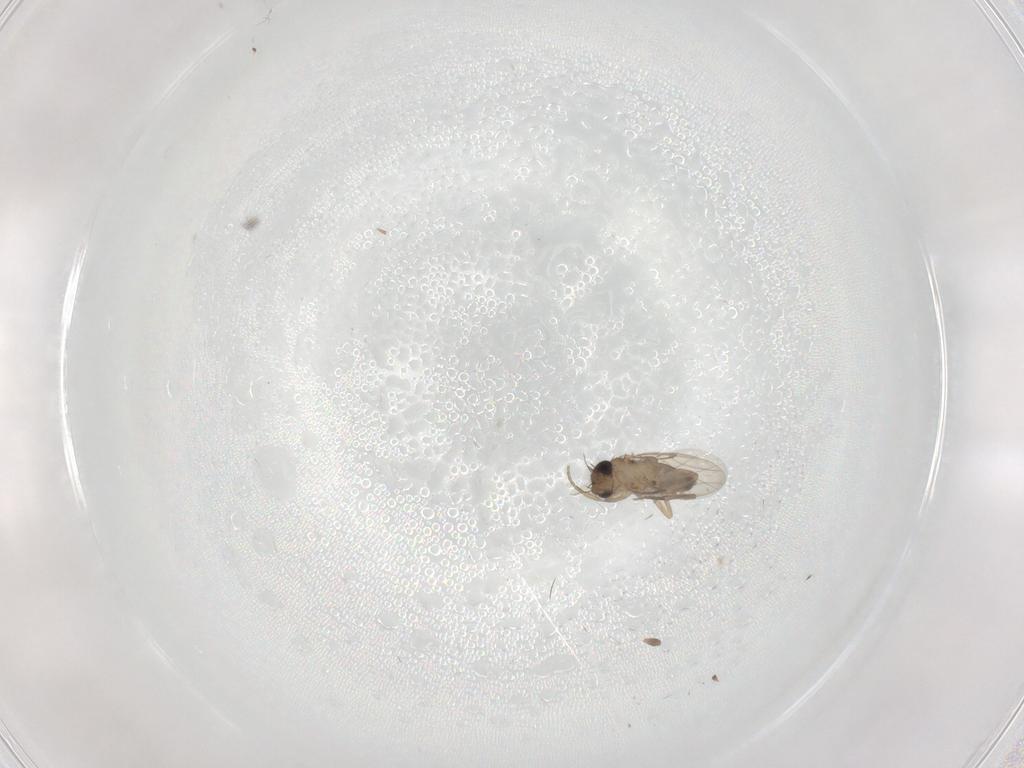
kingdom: Animalia
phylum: Arthropoda
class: Insecta
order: Diptera
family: Phoridae
